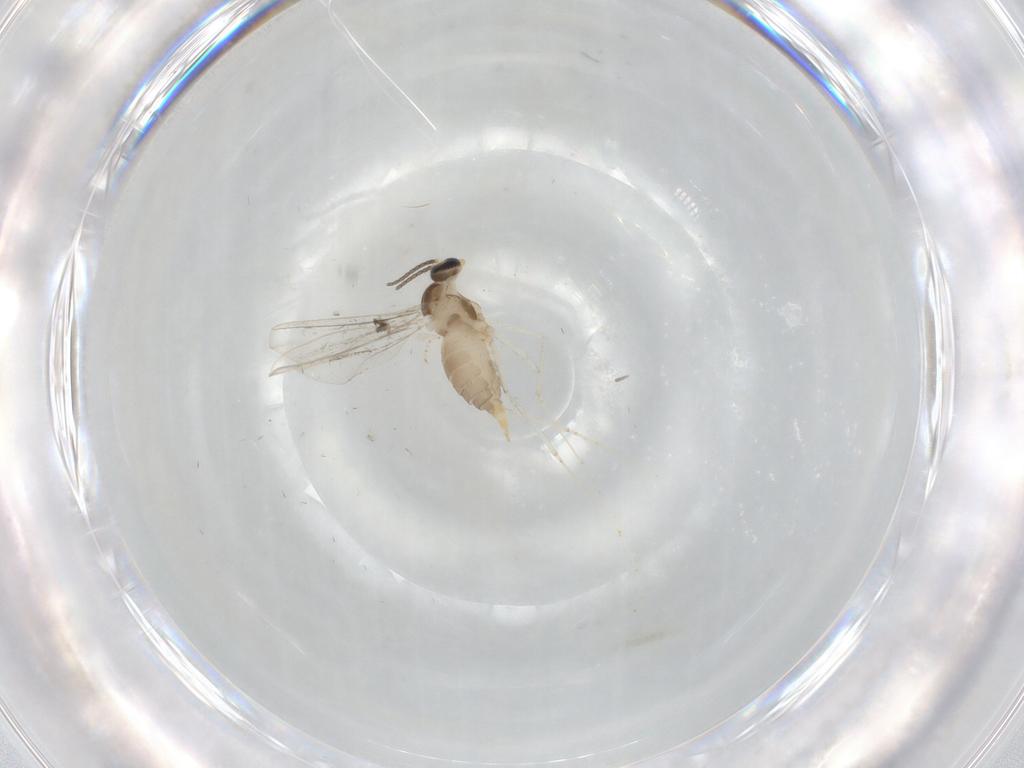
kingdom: Animalia
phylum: Arthropoda
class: Insecta
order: Diptera
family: Cecidomyiidae
